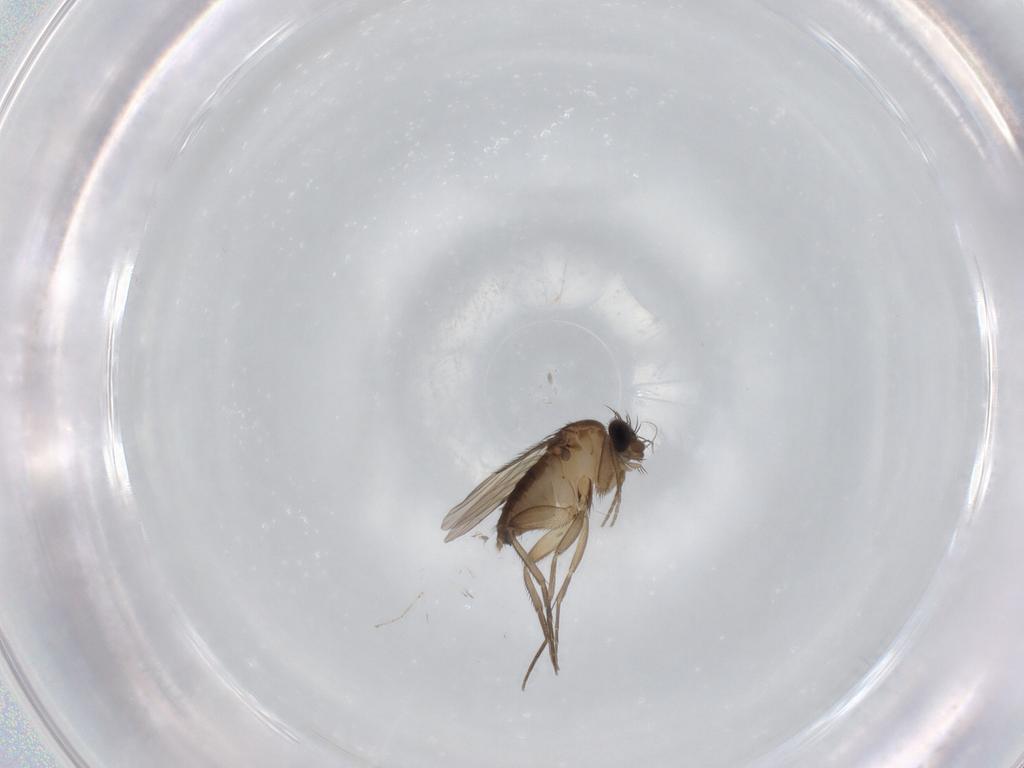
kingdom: Animalia
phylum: Arthropoda
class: Insecta
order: Diptera
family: Phoridae
